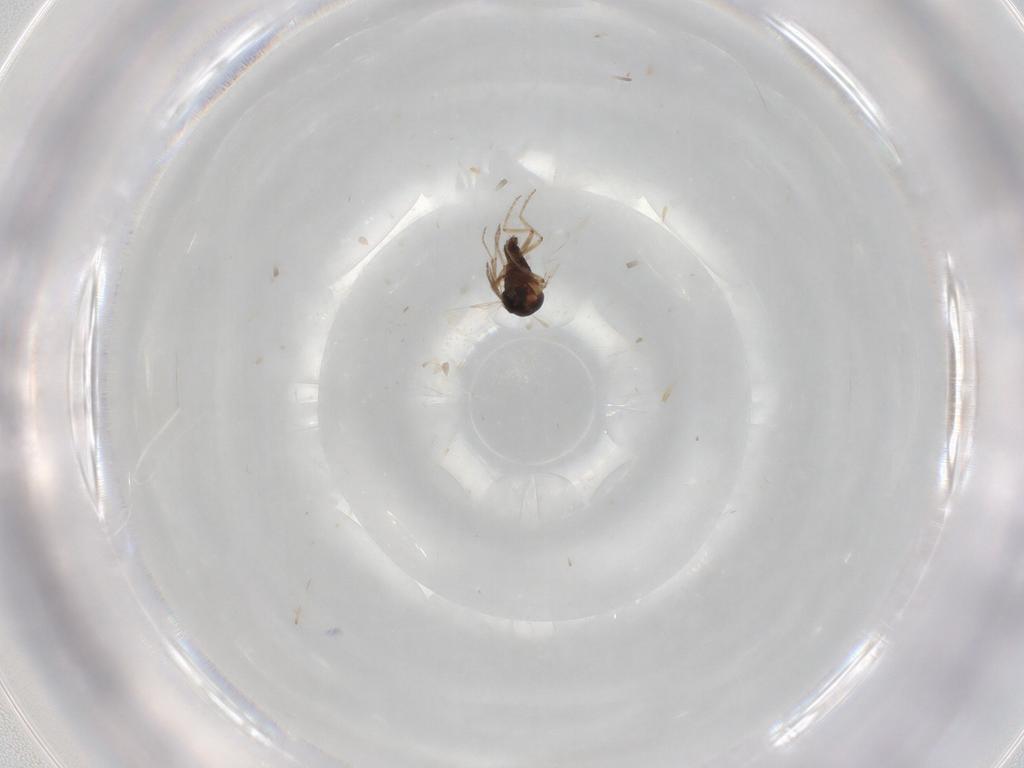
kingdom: Animalia
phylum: Arthropoda
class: Insecta
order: Diptera
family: Ceratopogonidae
